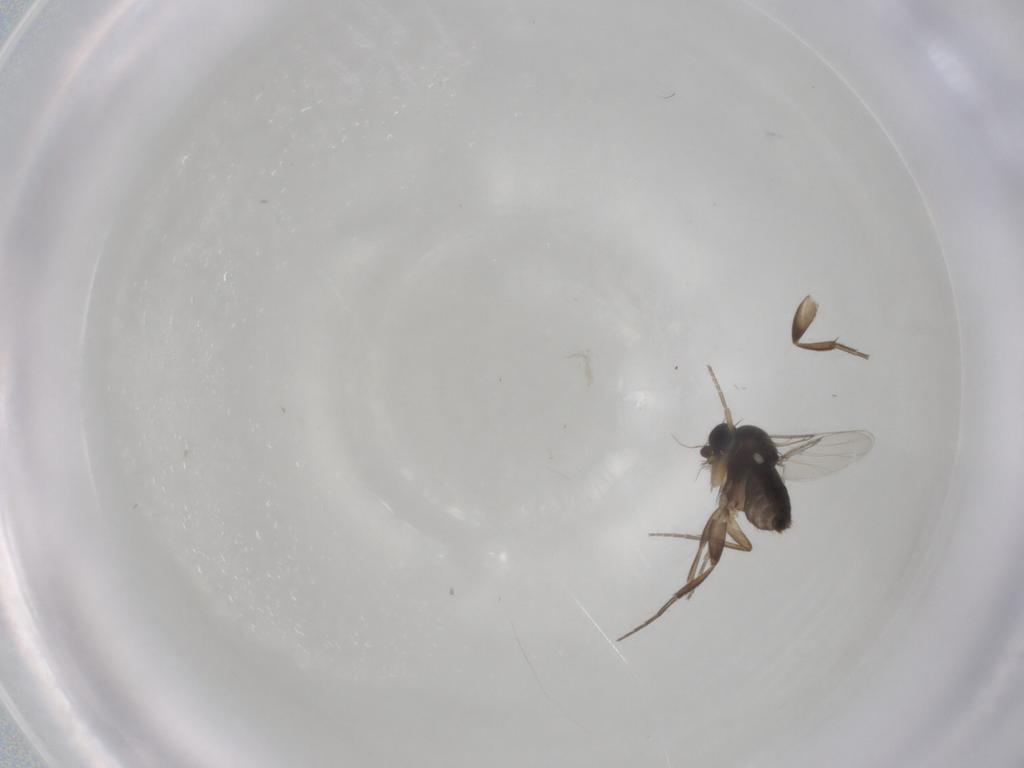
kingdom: Animalia
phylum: Arthropoda
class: Insecta
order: Diptera
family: Phoridae
